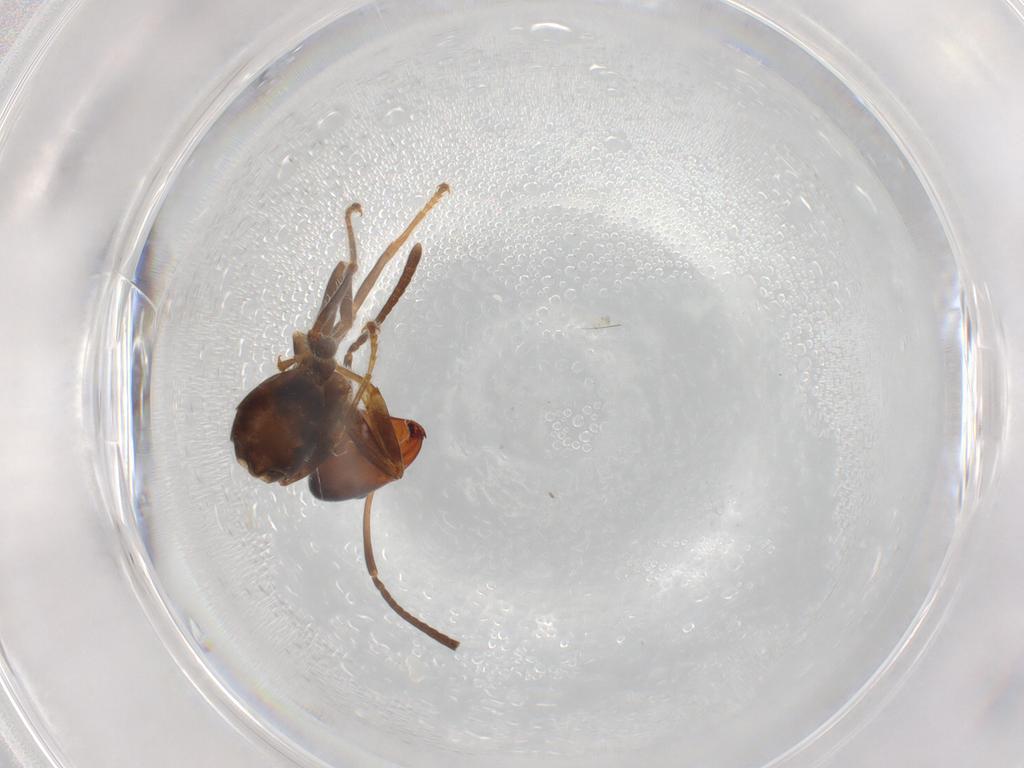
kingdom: Animalia
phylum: Arthropoda
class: Insecta
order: Hymenoptera
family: Formicidae
